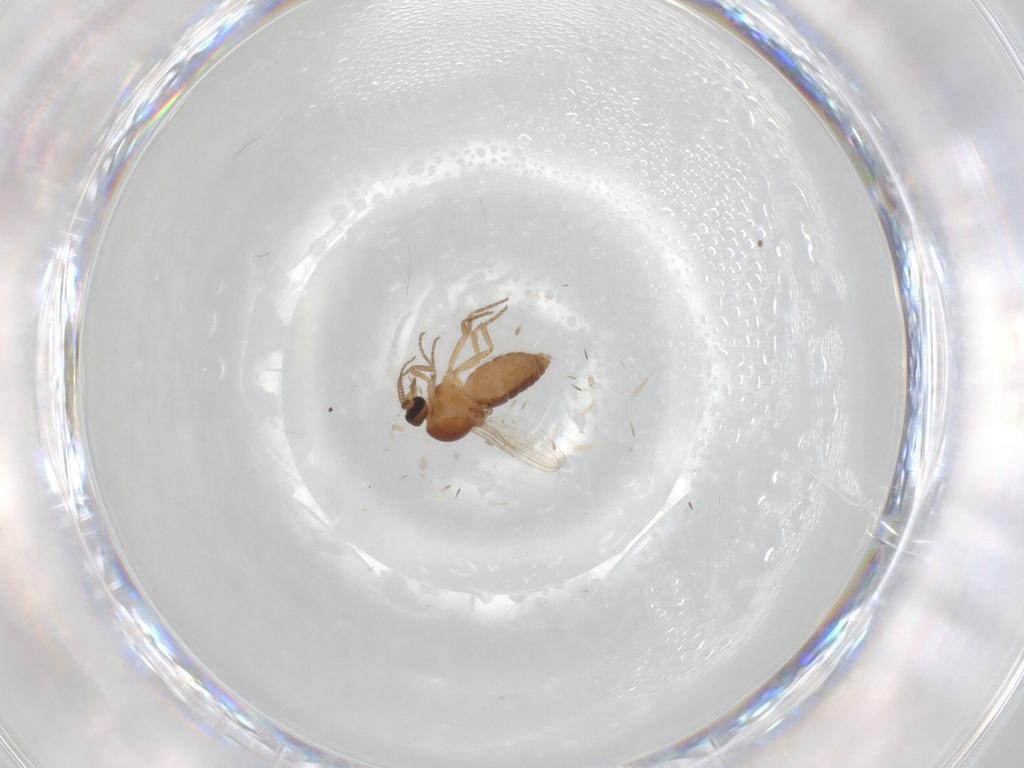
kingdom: Animalia
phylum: Arthropoda
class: Insecta
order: Diptera
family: Ceratopogonidae
